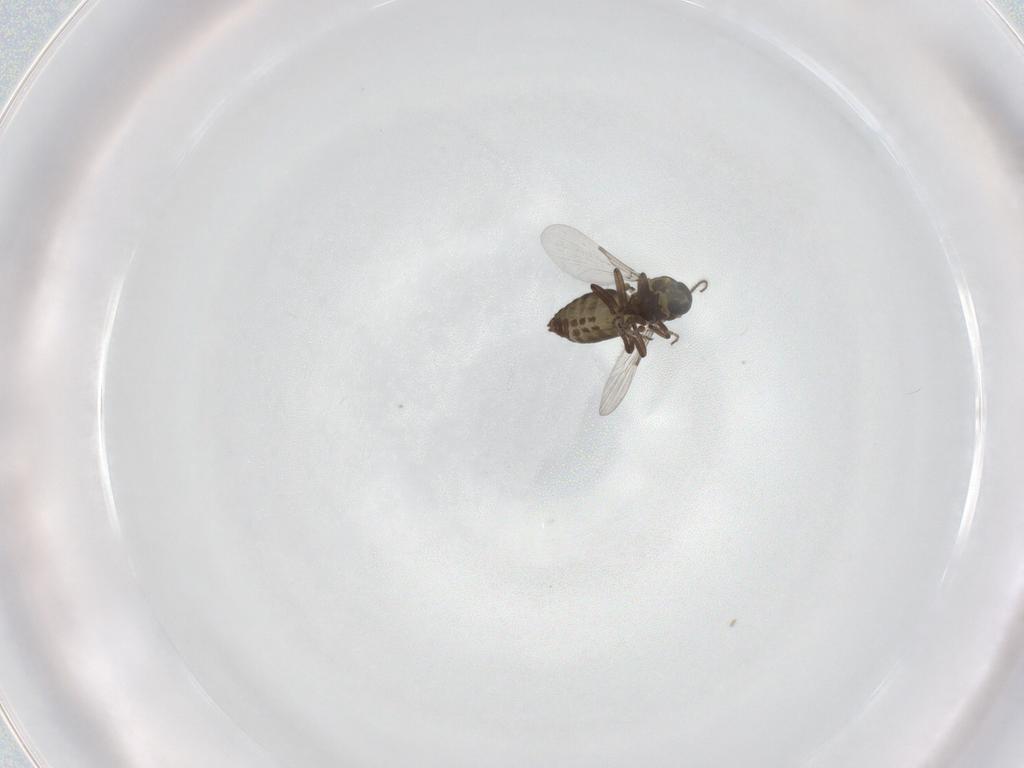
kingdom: Animalia
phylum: Arthropoda
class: Insecta
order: Diptera
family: Ceratopogonidae
